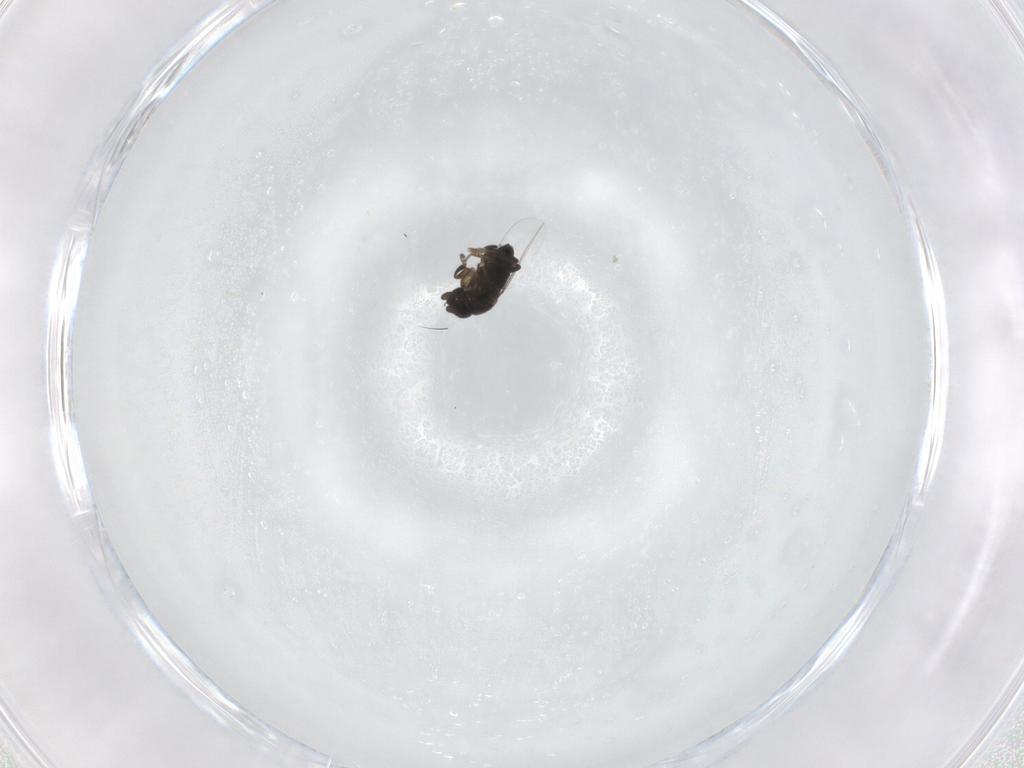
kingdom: Animalia
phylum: Arthropoda
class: Insecta
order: Diptera
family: Phoridae
